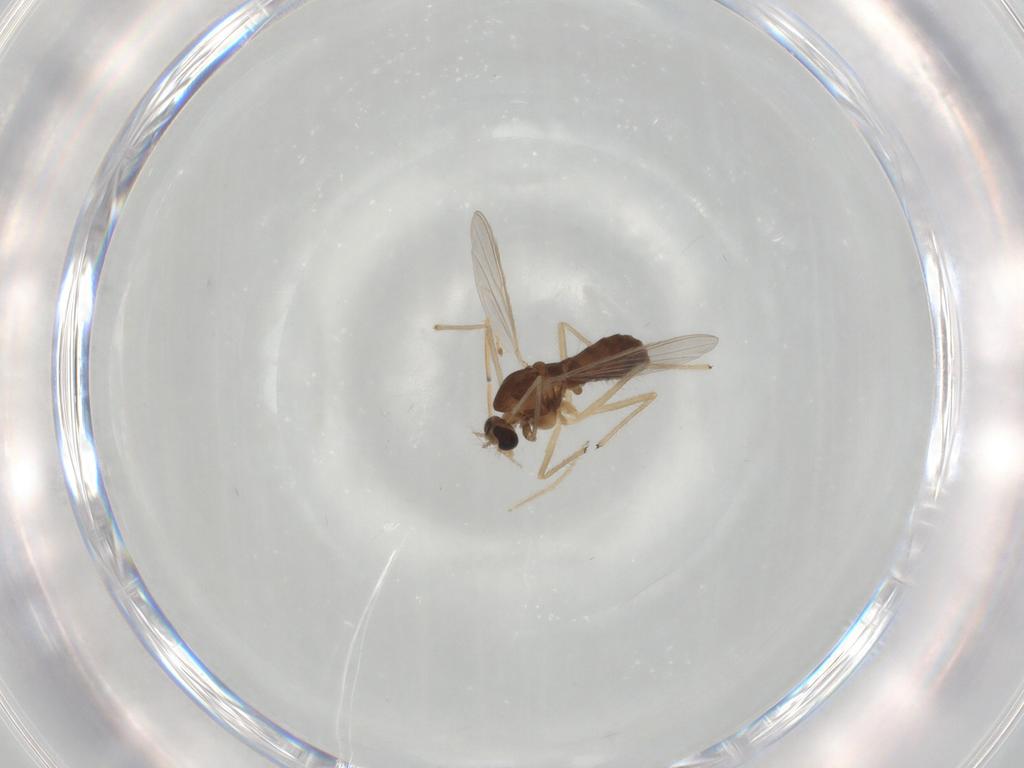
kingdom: Animalia
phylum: Arthropoda
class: Insecta
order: Diptera
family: Chironomidae
